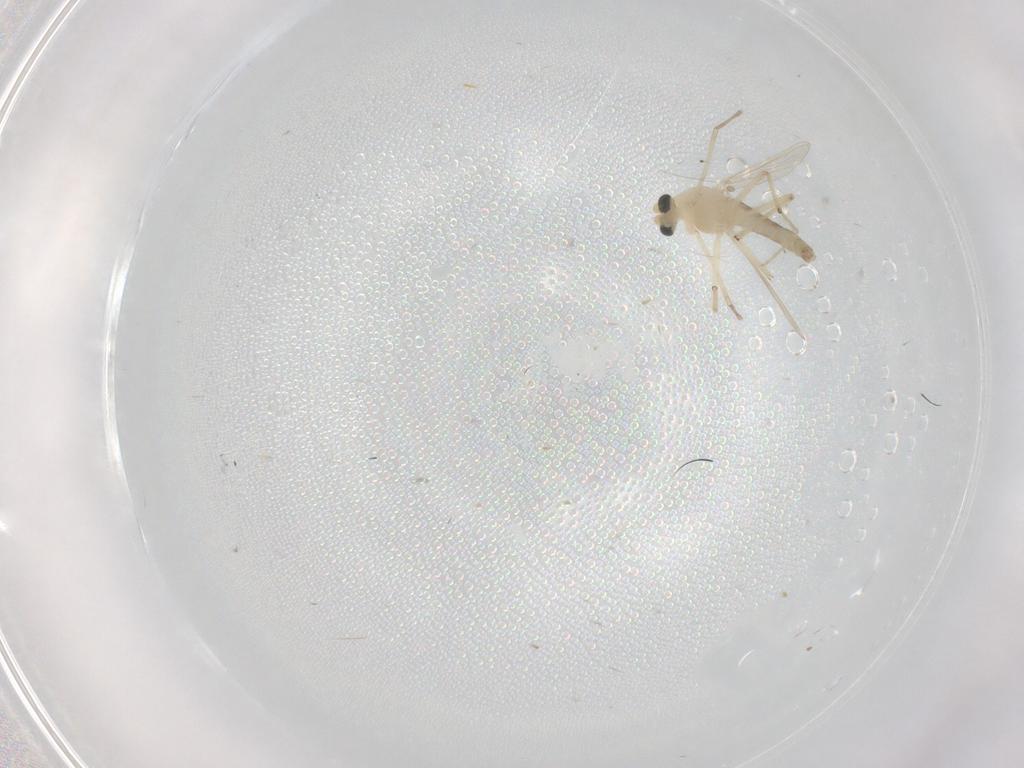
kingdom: Animalia
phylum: Arthropoda
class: Insecta
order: Diptera
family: Chironomidae
